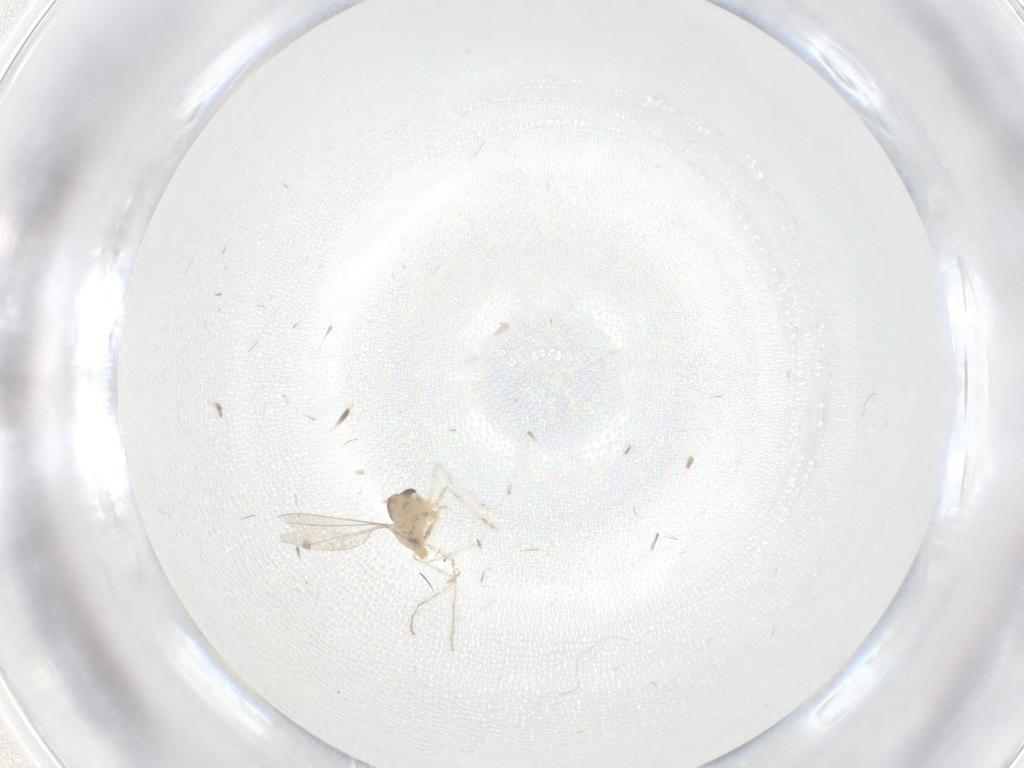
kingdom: Animalia
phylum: Arthropoda
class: Insecta
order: Diptera
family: Cecidomyiidae
